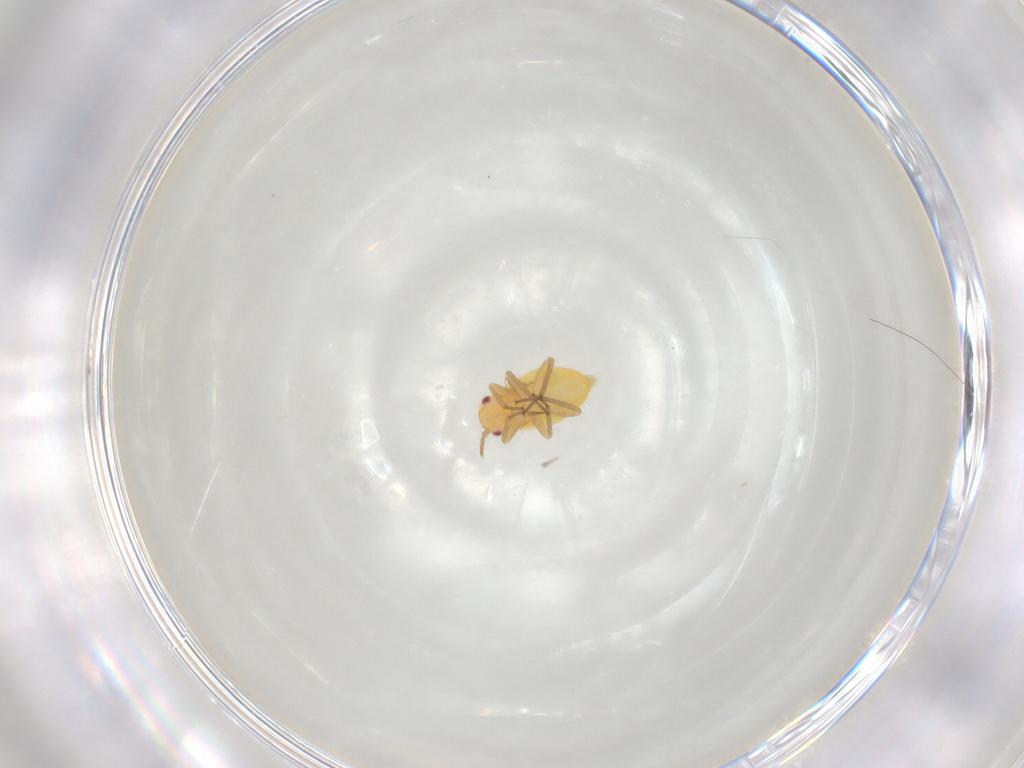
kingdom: Animalia
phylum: Arthropoda
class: Insecta
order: Hemiptera
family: Miridae
